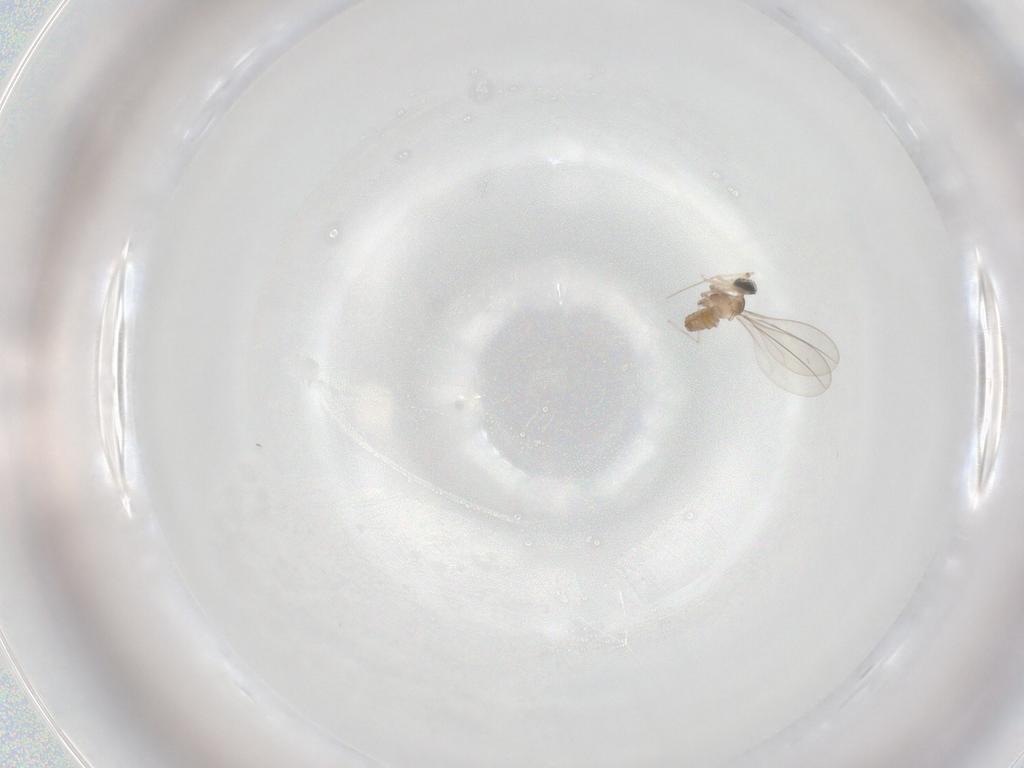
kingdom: Animalia
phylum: Arthropoda
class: Insecta
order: Diptera
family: Cecidomyiidae
